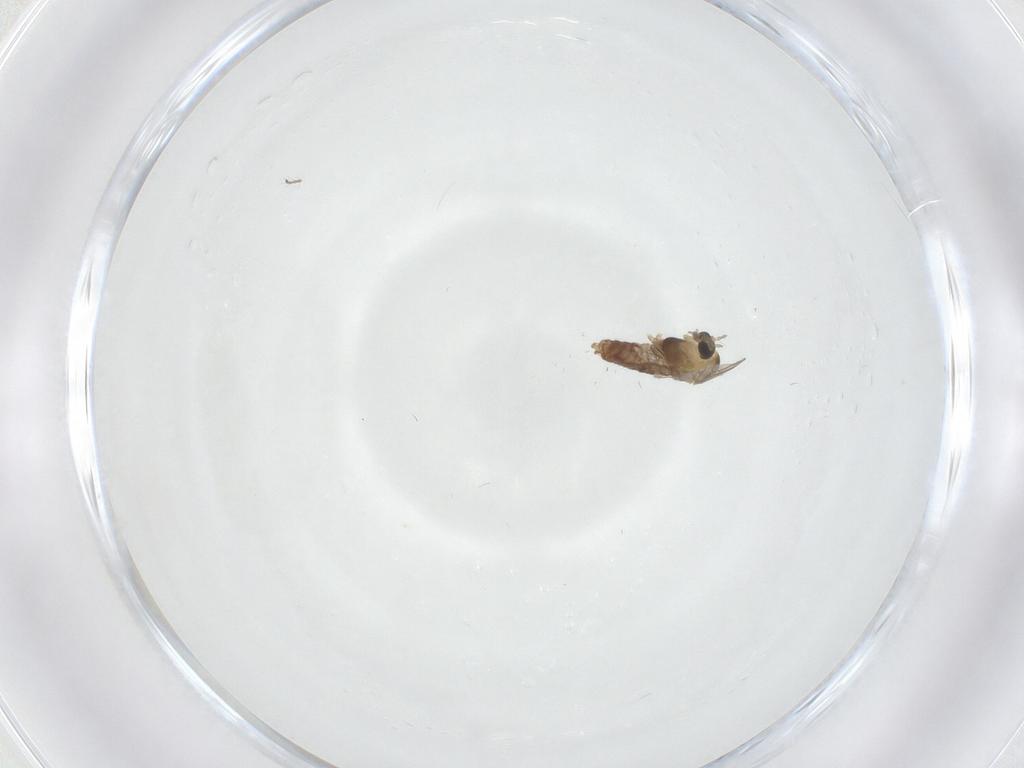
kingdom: Animalia
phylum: Arthropoda
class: Insecta
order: Diptera
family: Chironomidae
